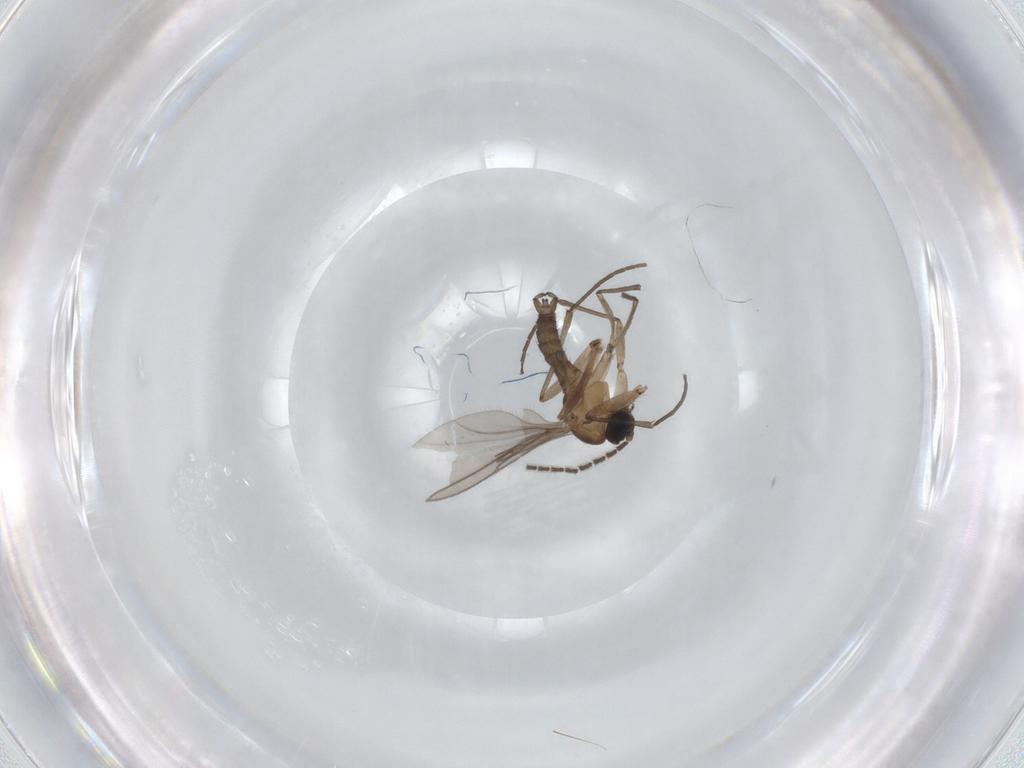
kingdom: Animalia
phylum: Arthropoda
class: Insecta
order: Diptera
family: Sciaridae
